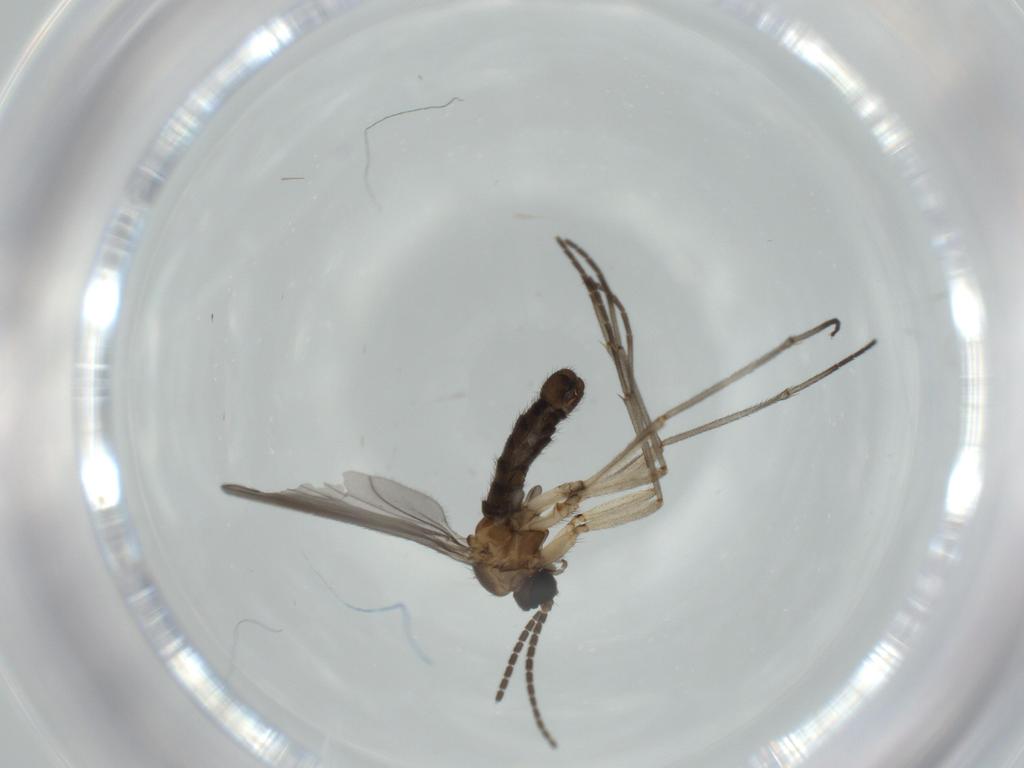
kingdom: Animalia
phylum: Arthropoda
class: Insecta
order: Diptera
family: Sciaridae
